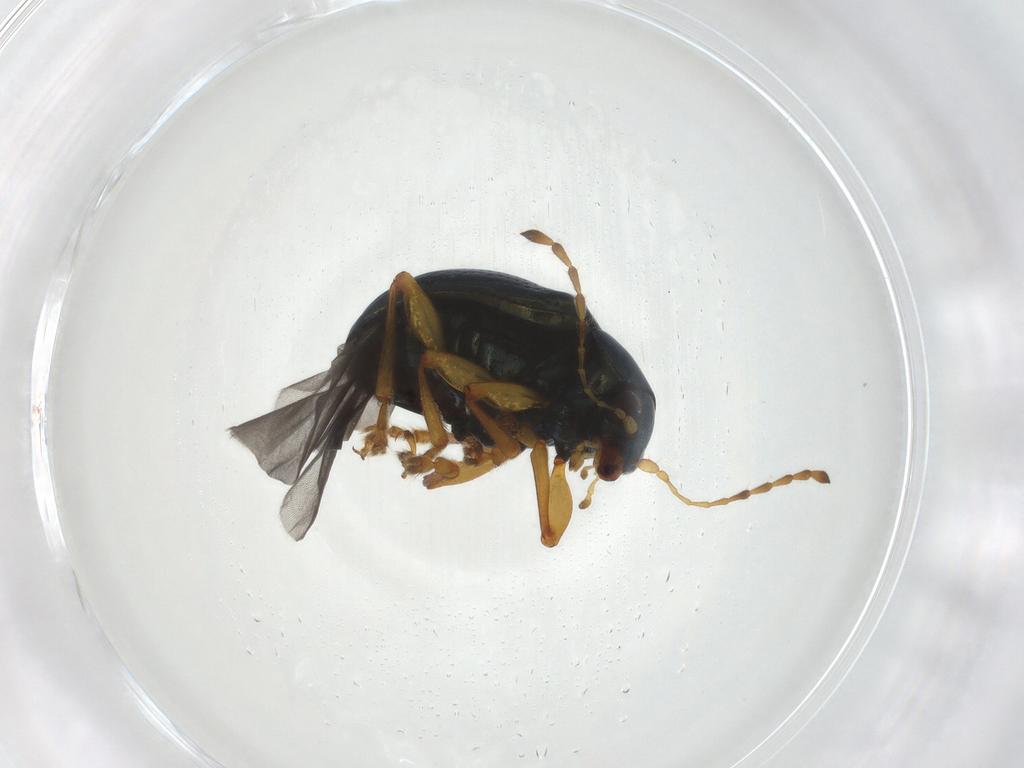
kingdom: Animalia
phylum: Arthropoda
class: Insecta
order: Coleoptera
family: Chrysomelidae
